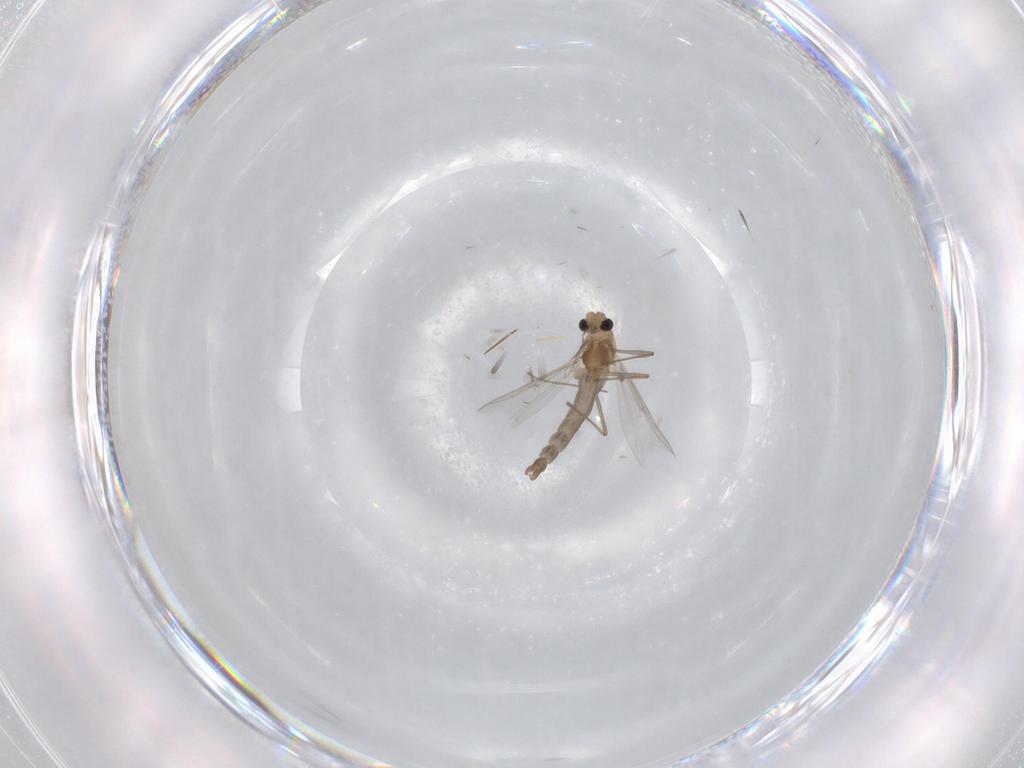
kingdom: Animalia
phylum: Arthropoda
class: Insecta
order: Diptera
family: Chironomidae
